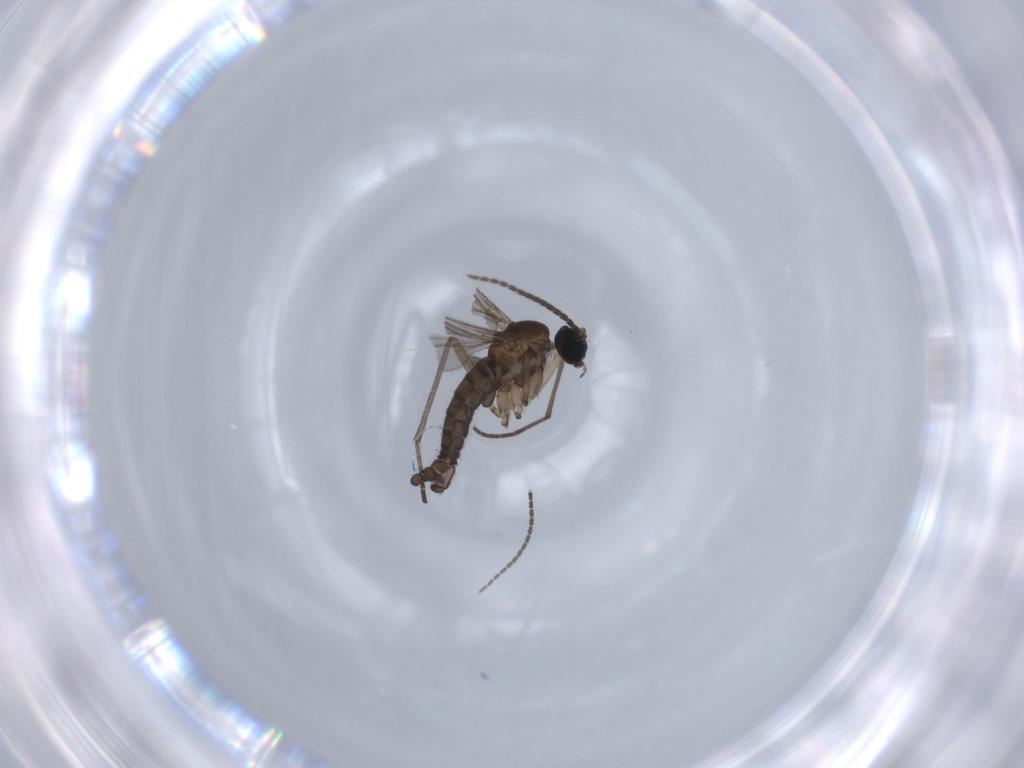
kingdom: Animalia
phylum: Arthropoda
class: Insecta
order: Diptera
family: Sciaridae
